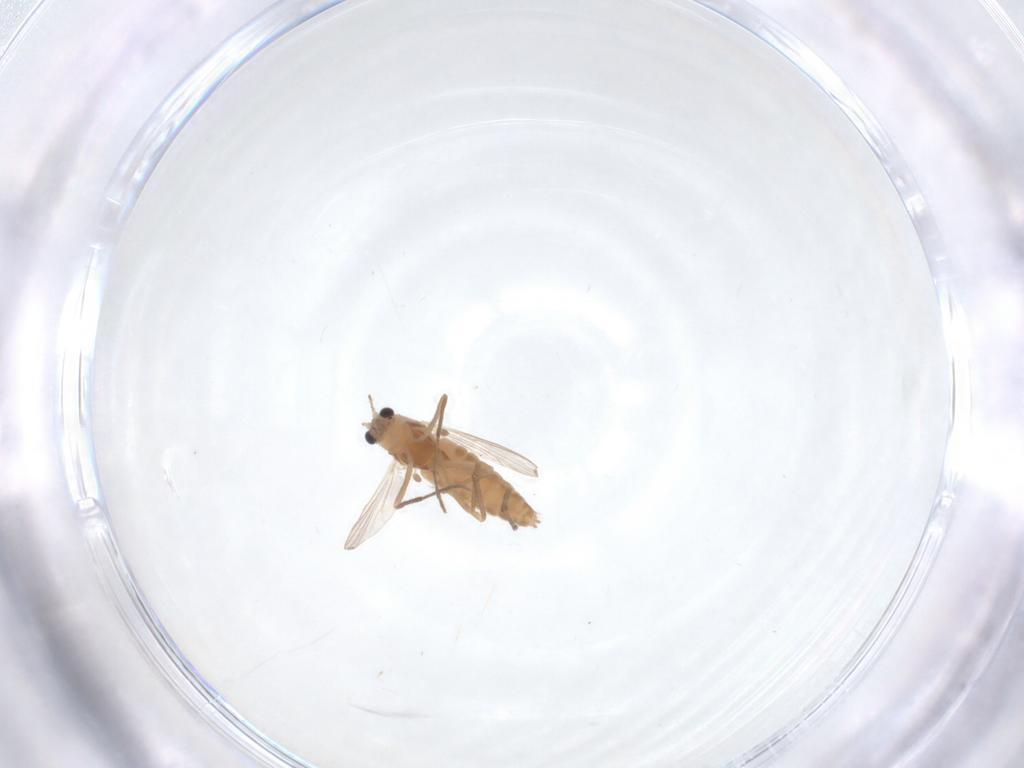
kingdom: Animalia
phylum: Arthropoda
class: Insecta
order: Diptera
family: Chironomidae
